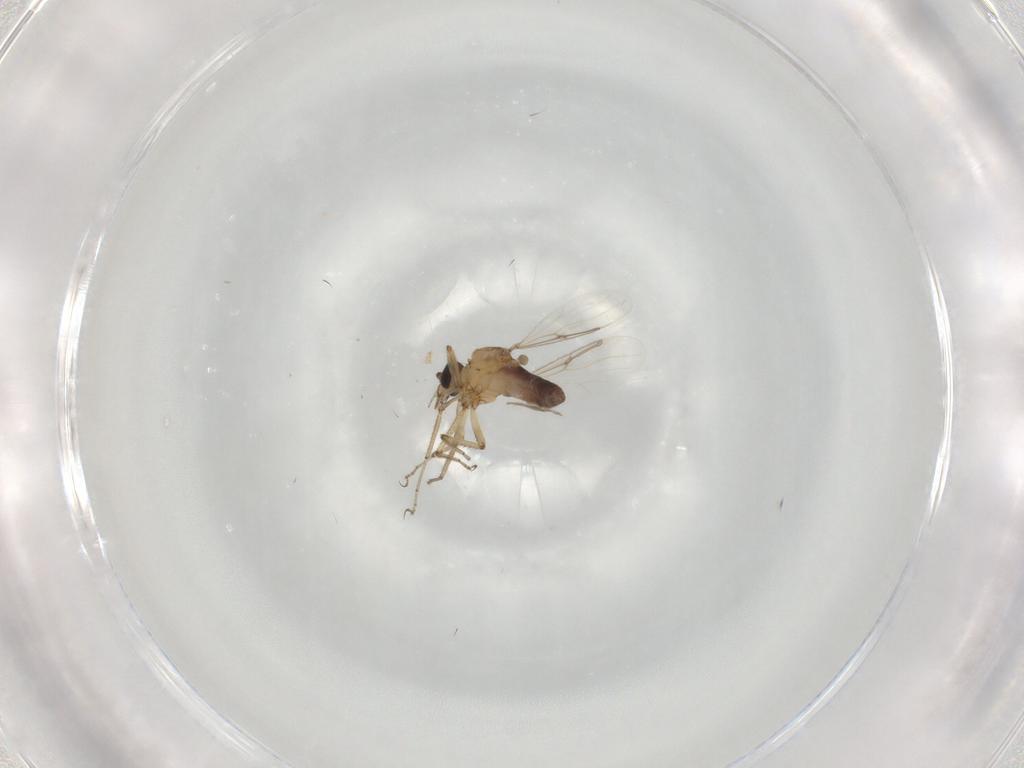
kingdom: Animalia
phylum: Arthropoda
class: Insecta
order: Diptera
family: Ceratopogonidae
